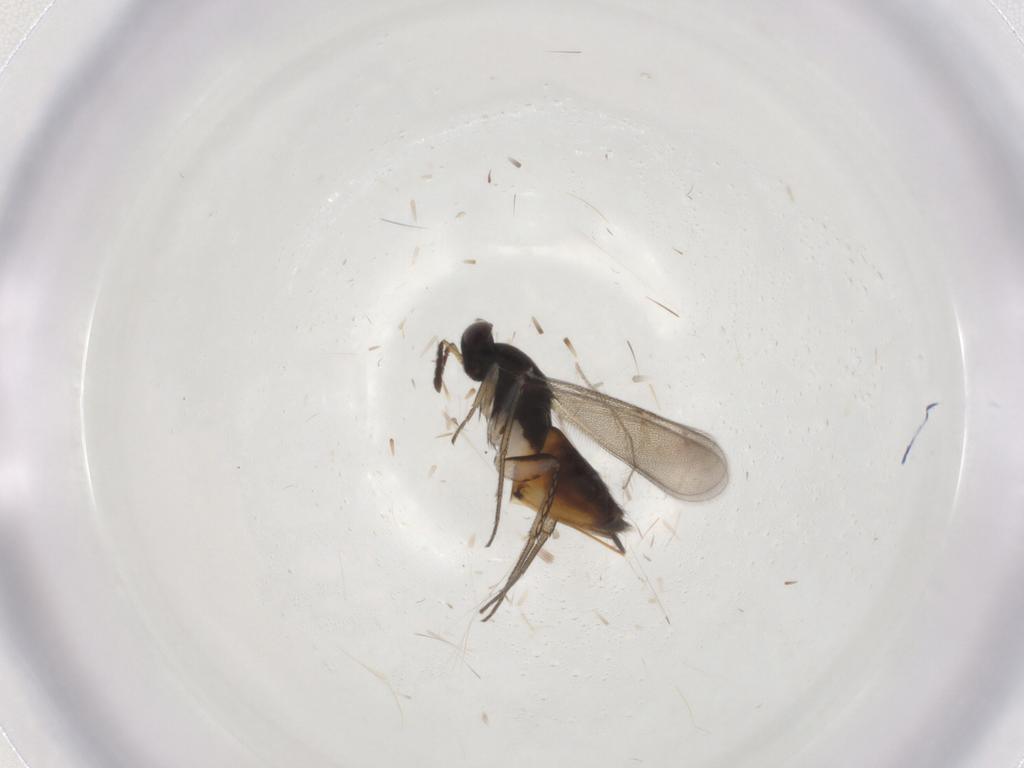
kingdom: Animalia
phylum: Arthropoda
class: Insecta
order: Hymenoptera
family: Eulophidae
